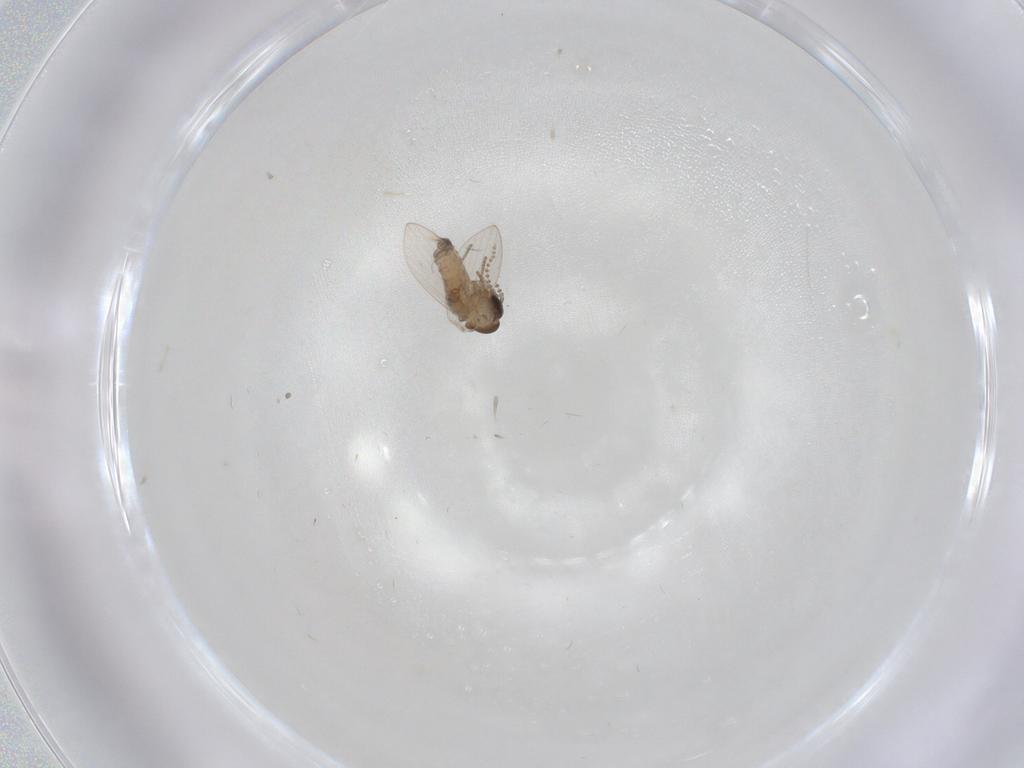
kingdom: Animalia
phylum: Arthropoda
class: Insecta
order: Diptera
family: Psychodidae
